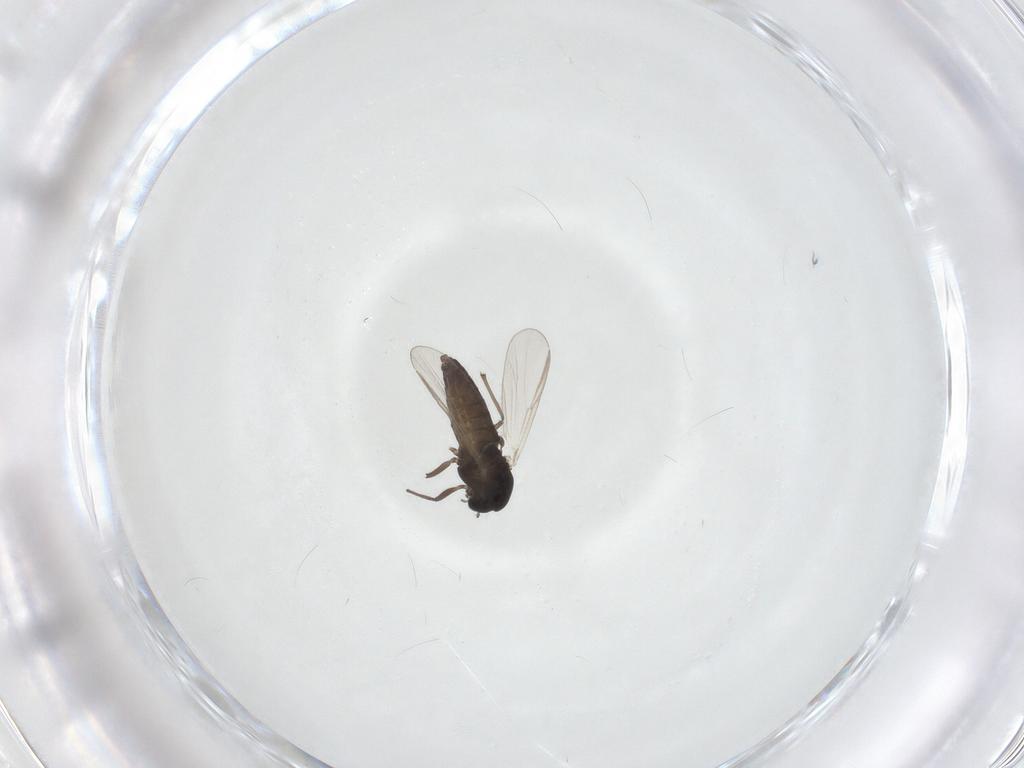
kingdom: Animalia
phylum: Arthropoda
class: Insecta
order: Diptera
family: Chironomidae
